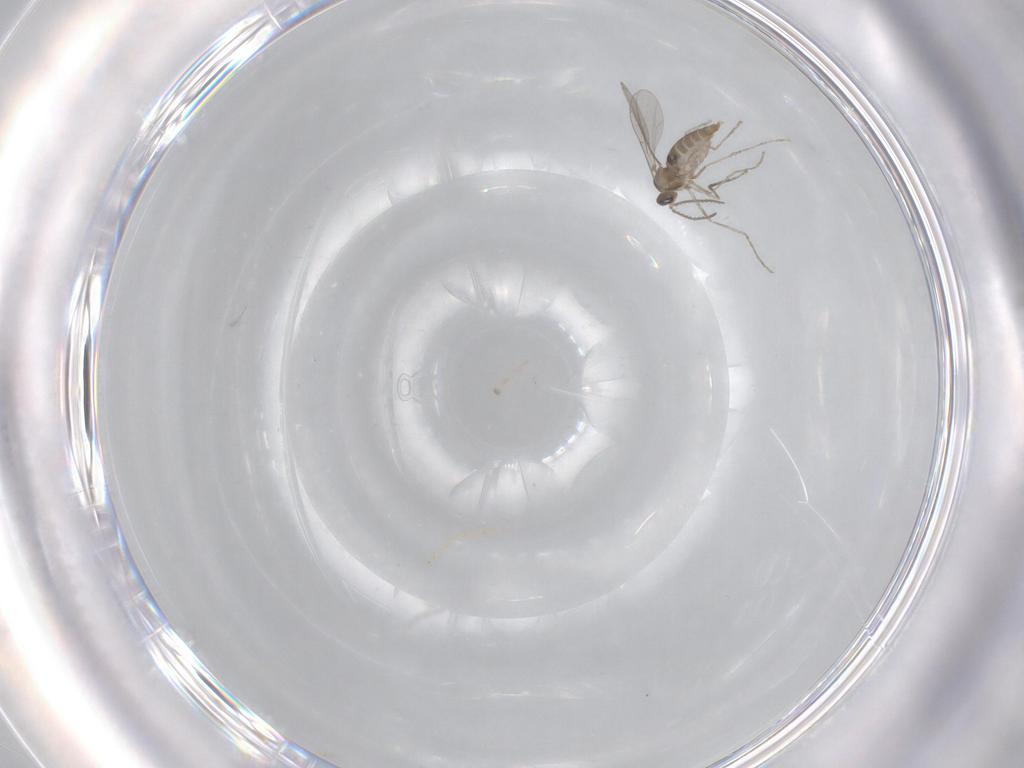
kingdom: Animalia
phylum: Arthropoda
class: Insecta
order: Diptera
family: Chironomidae
